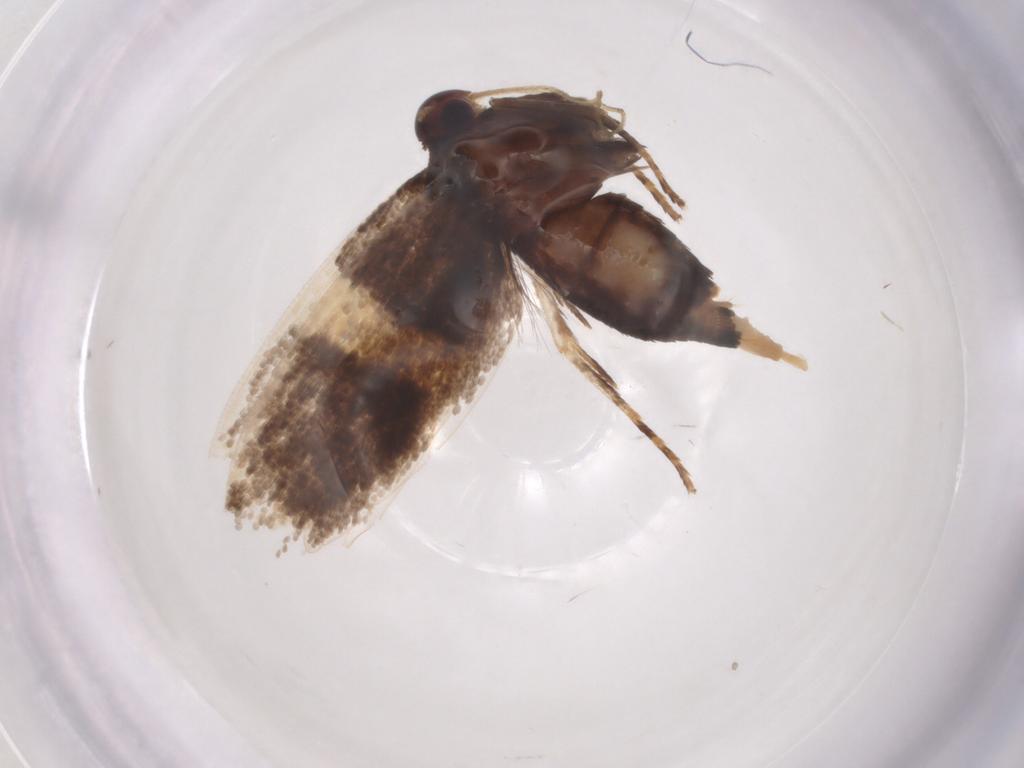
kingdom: Animalia
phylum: Arthropoda
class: Insecta
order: Lepidoptera
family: Oecophoridae
